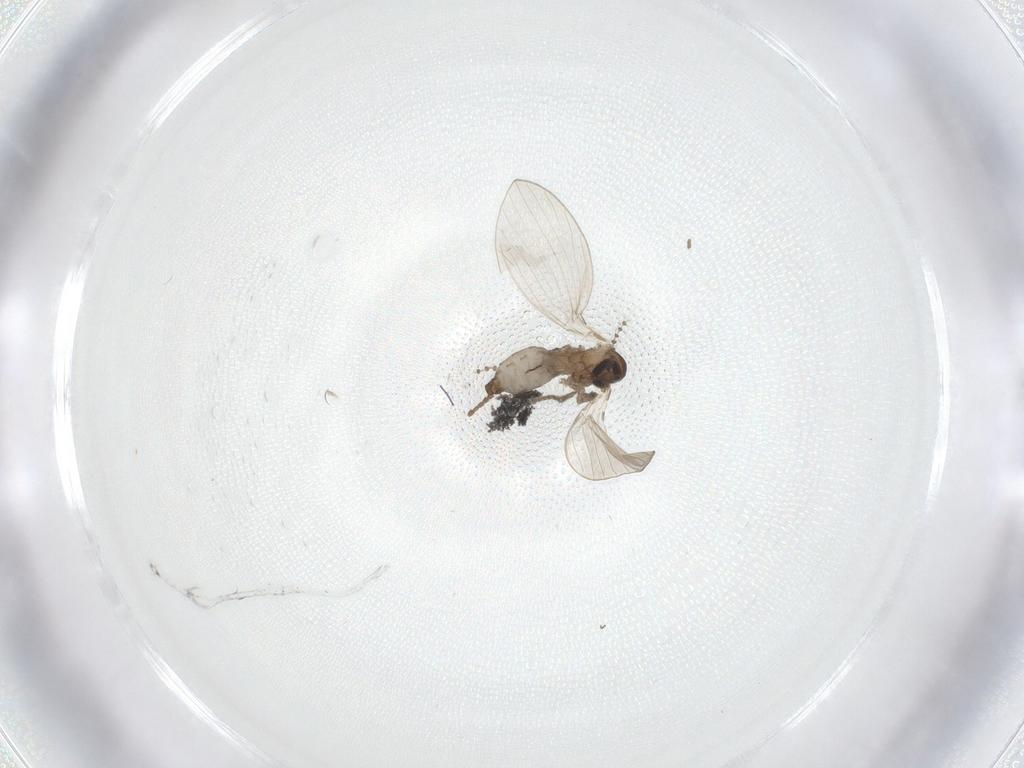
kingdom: Animalia
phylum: Arthropoda
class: Insecta
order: Diptera
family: Psychodidae
